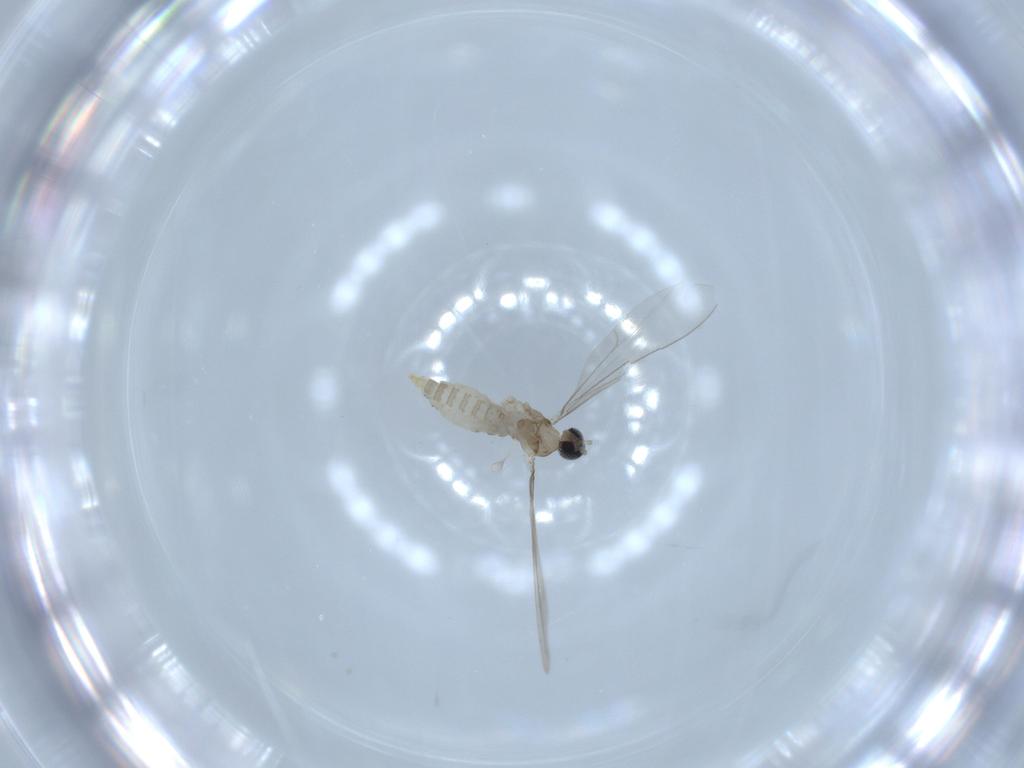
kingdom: Animalia
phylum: Arthropoda
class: Insecta
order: Diptera
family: Cecidomyiidae
